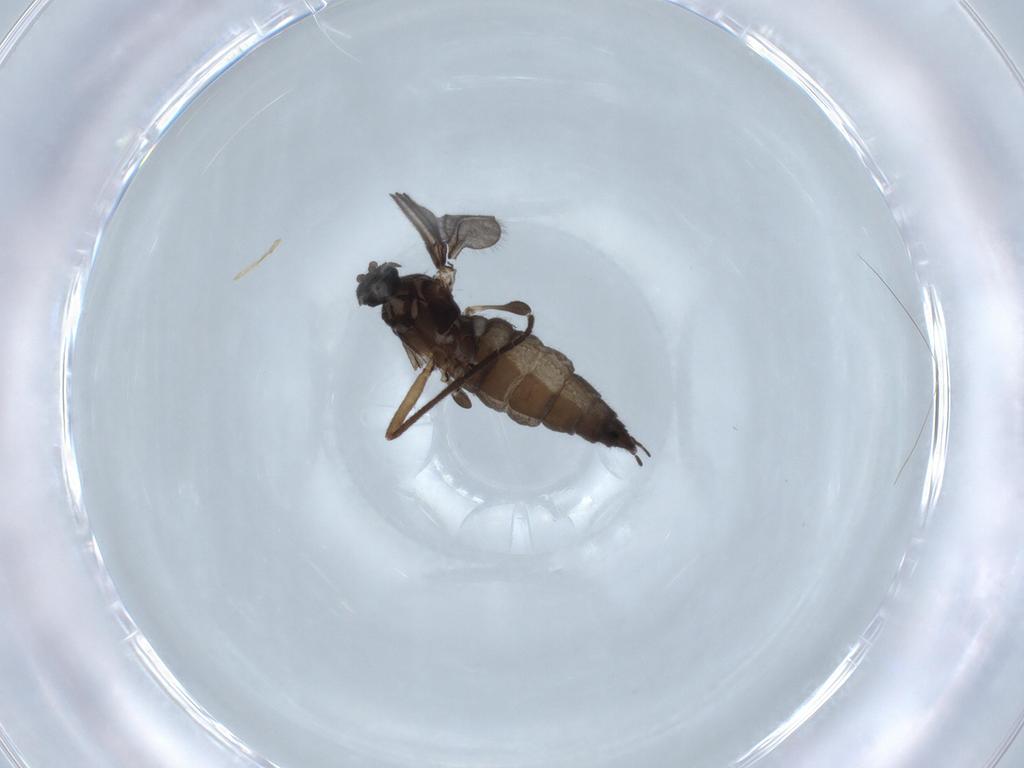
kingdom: Animalia
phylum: Arthropoda
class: Insecta
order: Diptera
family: Sciaridae
